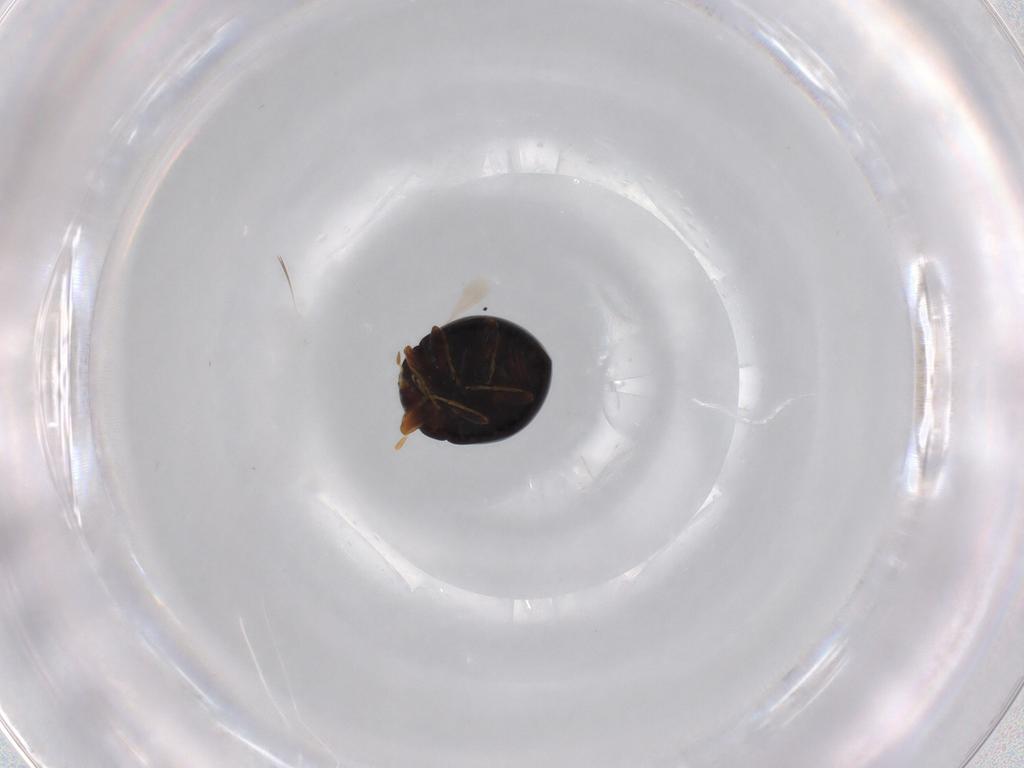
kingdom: Animalia
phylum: Arthropoda
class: Insecta
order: Coleoptera
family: Coccinellidae
